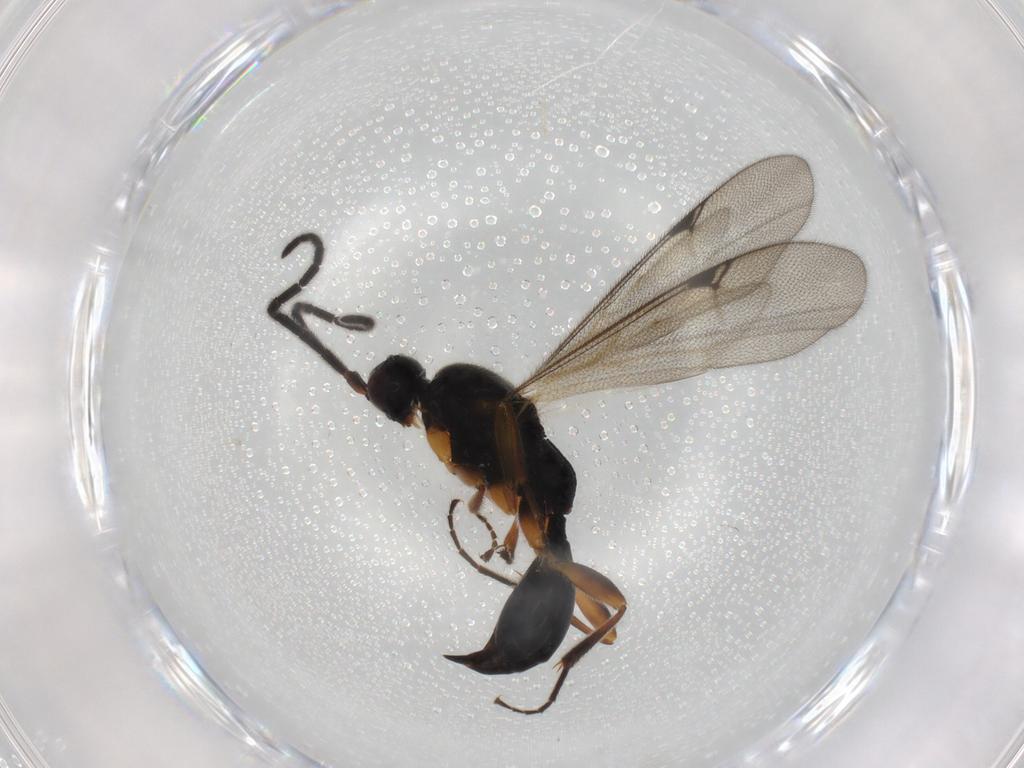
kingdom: Animalia
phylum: Arthropoda
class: Insecta
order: Hymenoptera
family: Proctotrupidae
